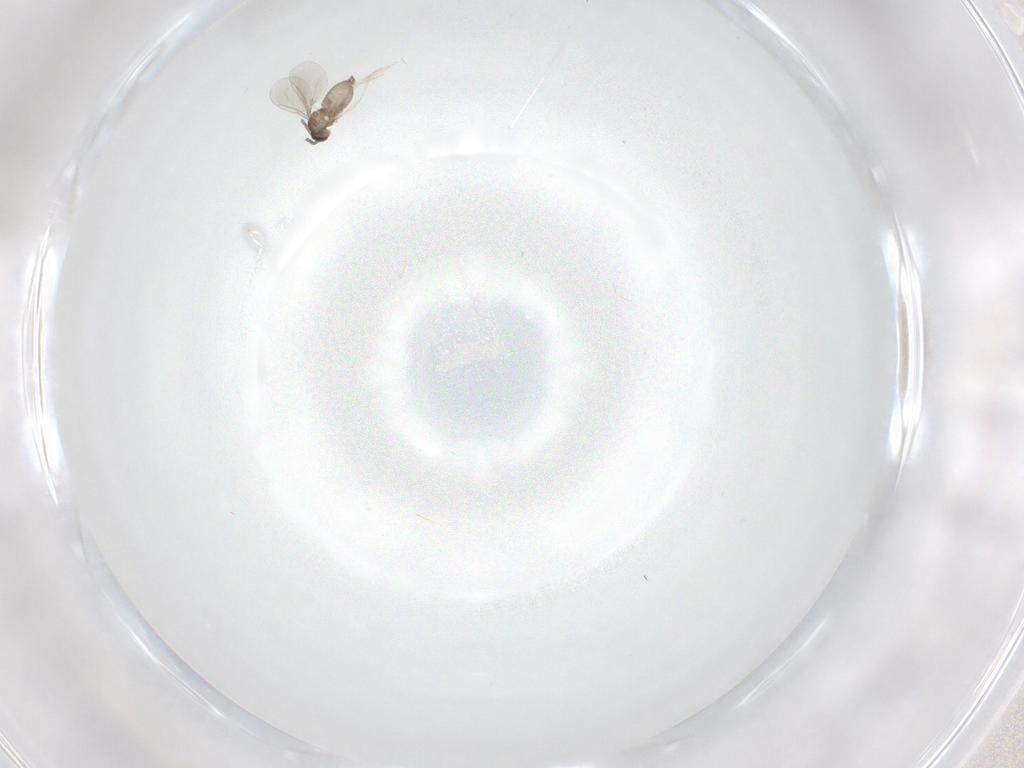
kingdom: Animalia
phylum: Arthropoda
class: Insecta
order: Diptera
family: Cecidomyiidae
